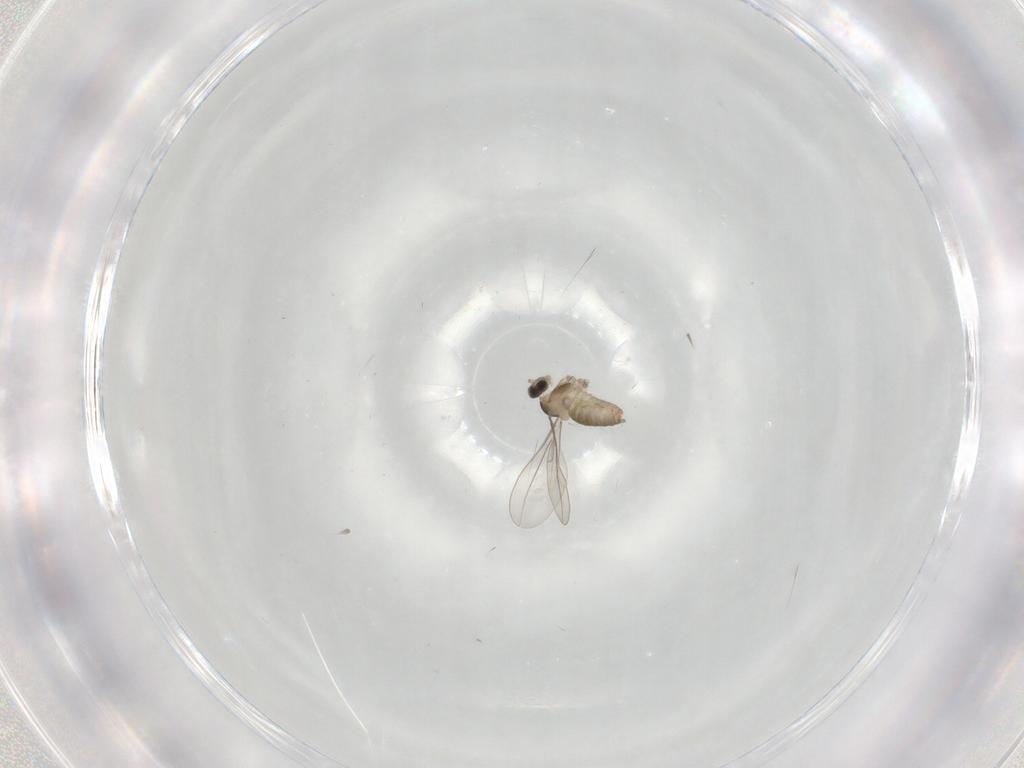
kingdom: Animalia
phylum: Arthropoda
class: Insecta
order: Diptera
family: Cecidomyiidae
